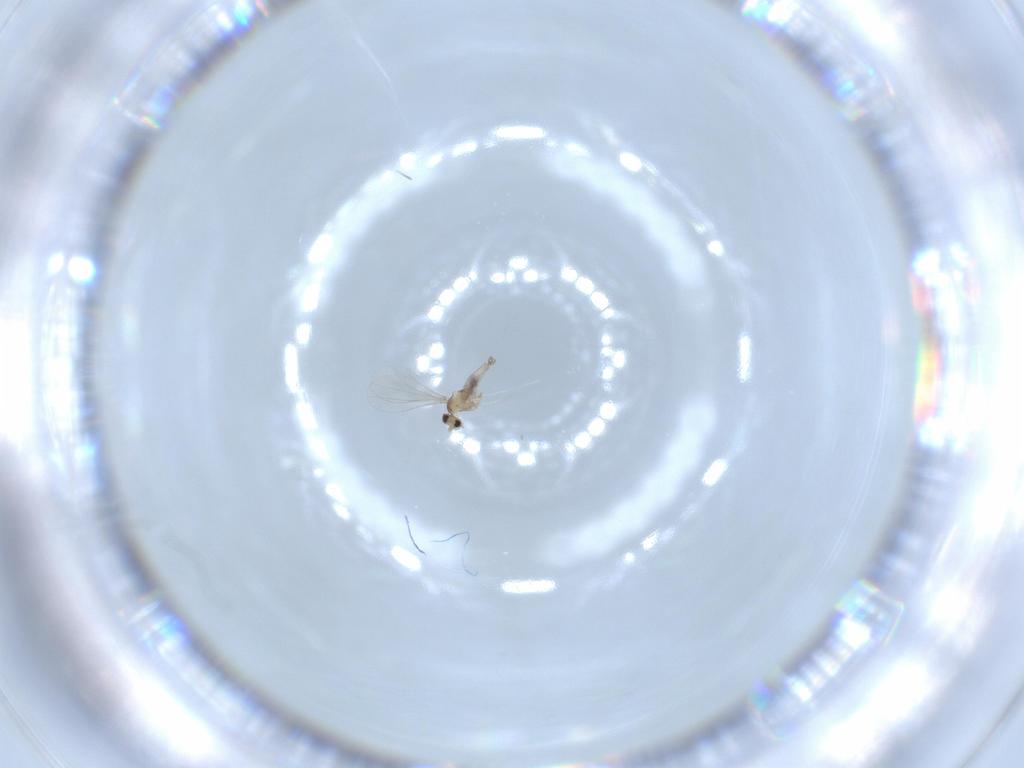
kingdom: Animalia
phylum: Arthropoda
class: Insecta
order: Diptera
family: Cecidomyiidae
